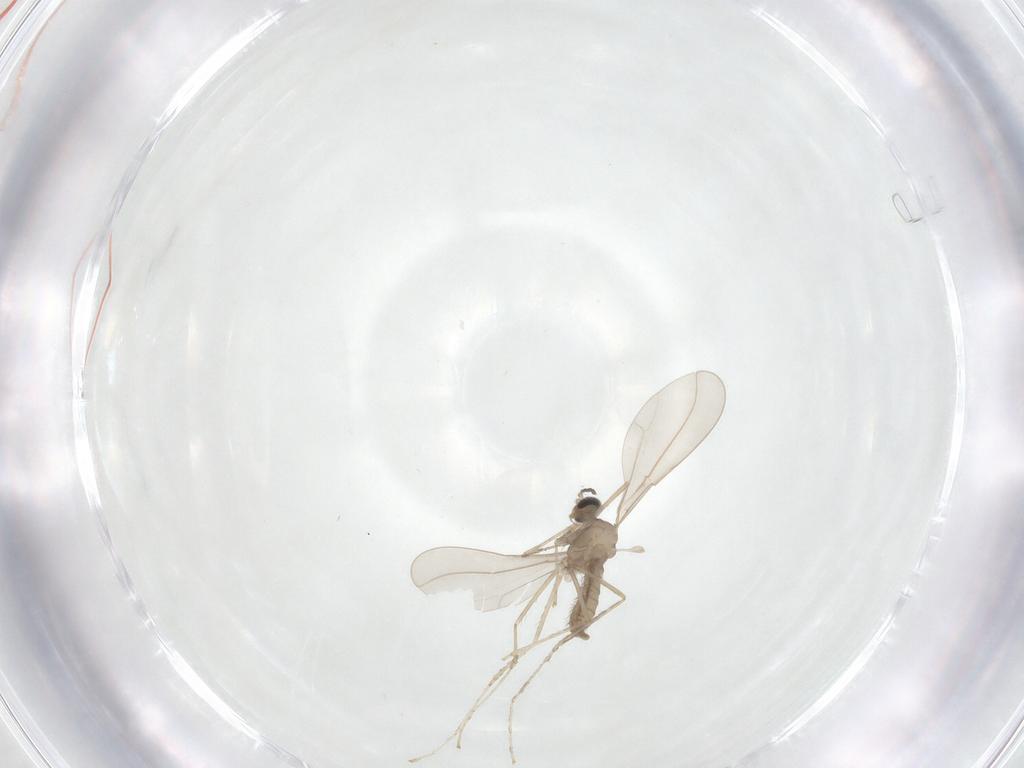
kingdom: Animalia
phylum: Arthropoda
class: Insecta
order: Diptera
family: Cecidomyiidae
